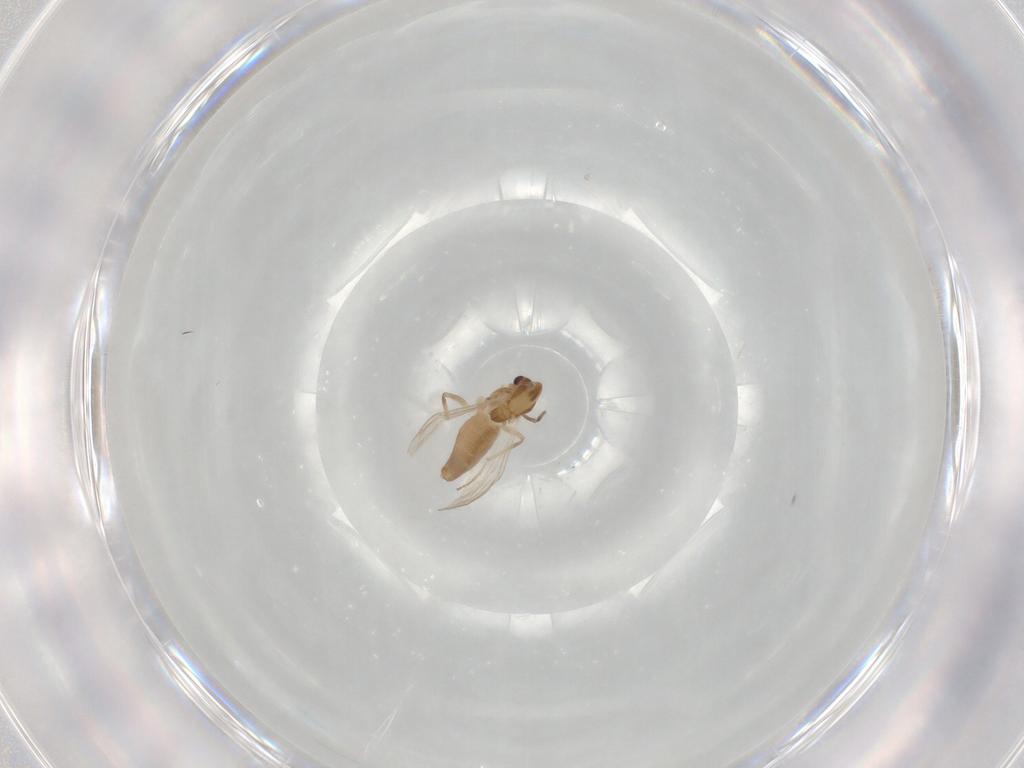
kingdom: Animalia
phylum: Arthropoda
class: Insecta
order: Diptera
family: Chironomidae
